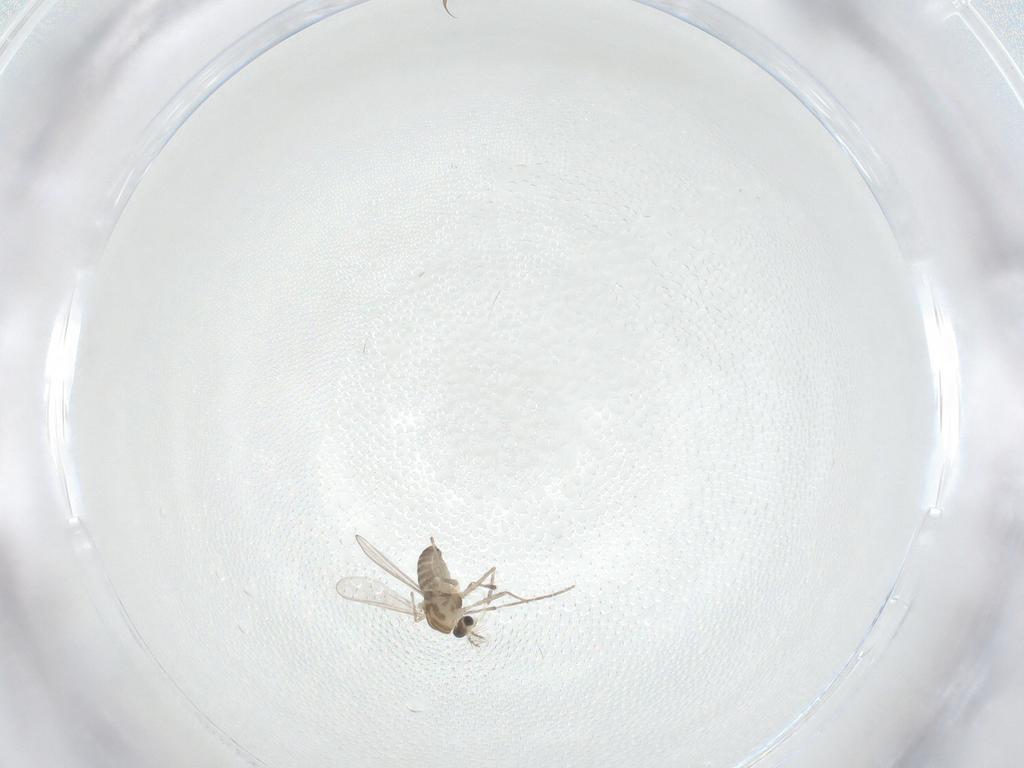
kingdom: Animalia
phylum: Arthropoda
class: Insecta
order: Diptera
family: Chironomidae
